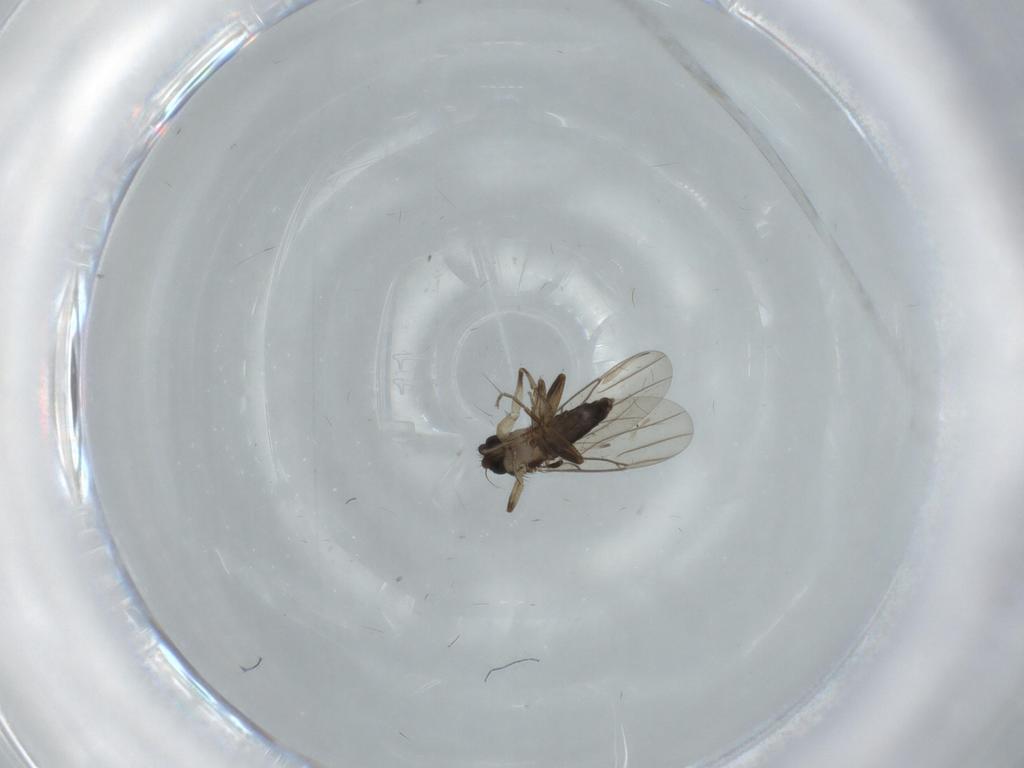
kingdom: Animalia
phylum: Arthropoda
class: Insecta
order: Diptera
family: Phoridae
